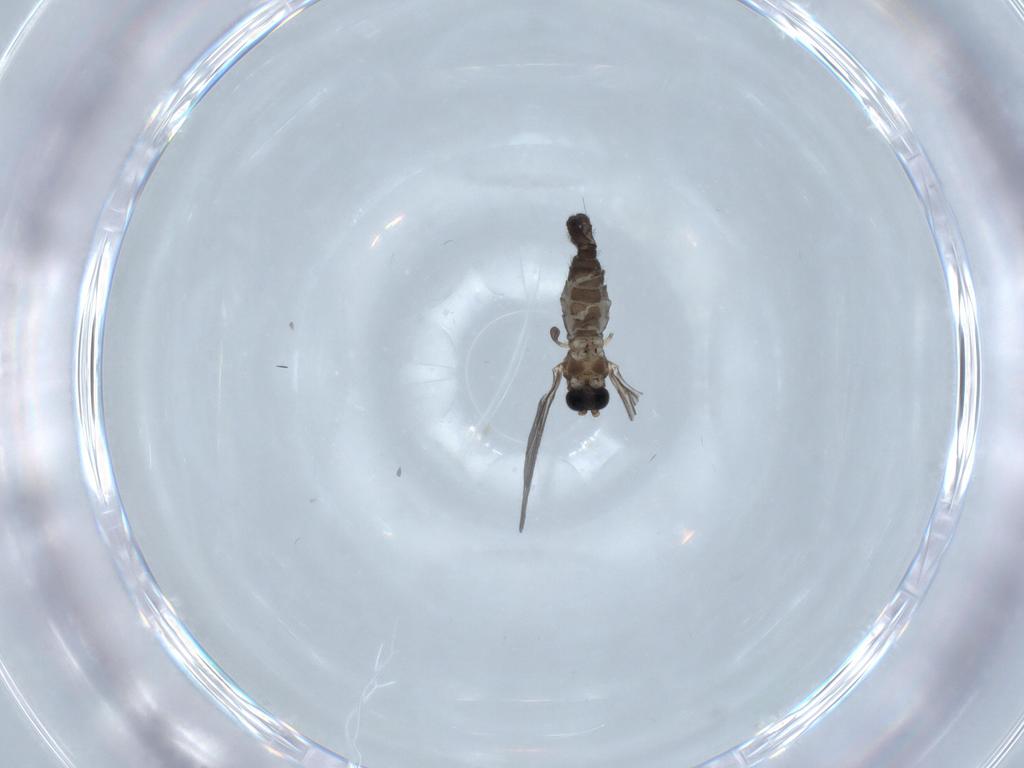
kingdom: Animalia
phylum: Arthropoda
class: Insecta
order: Diptera
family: Sciaridae
